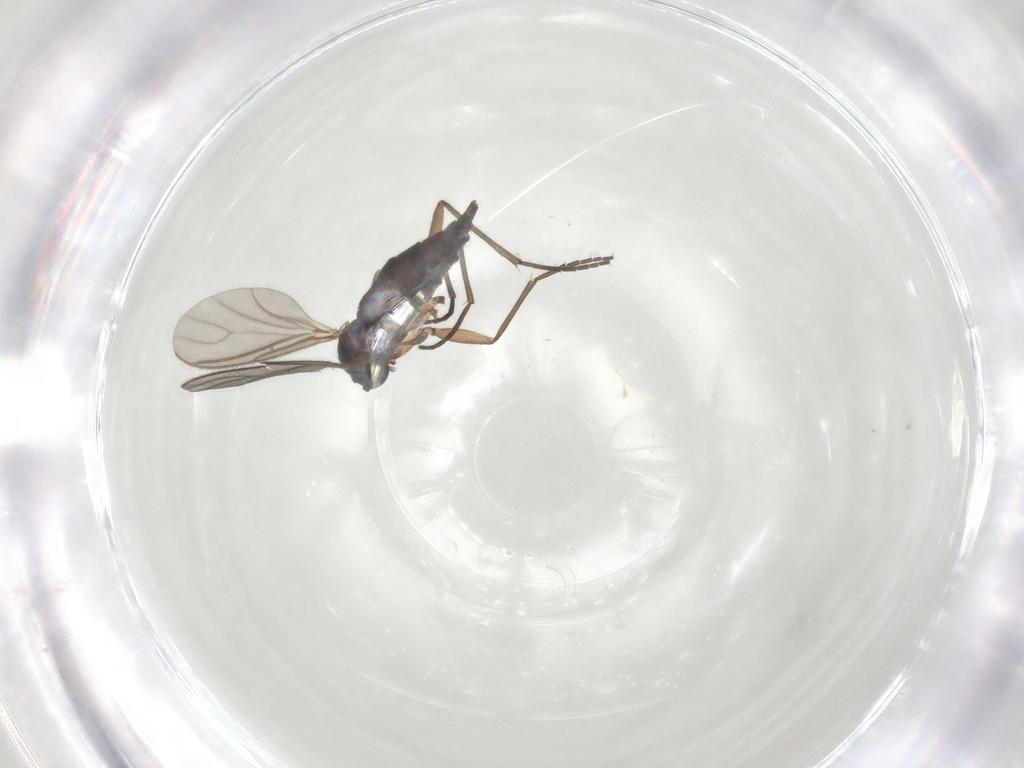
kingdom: Animalia
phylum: Arthropoda
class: Insecta
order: Diptera
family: Sciaridae
